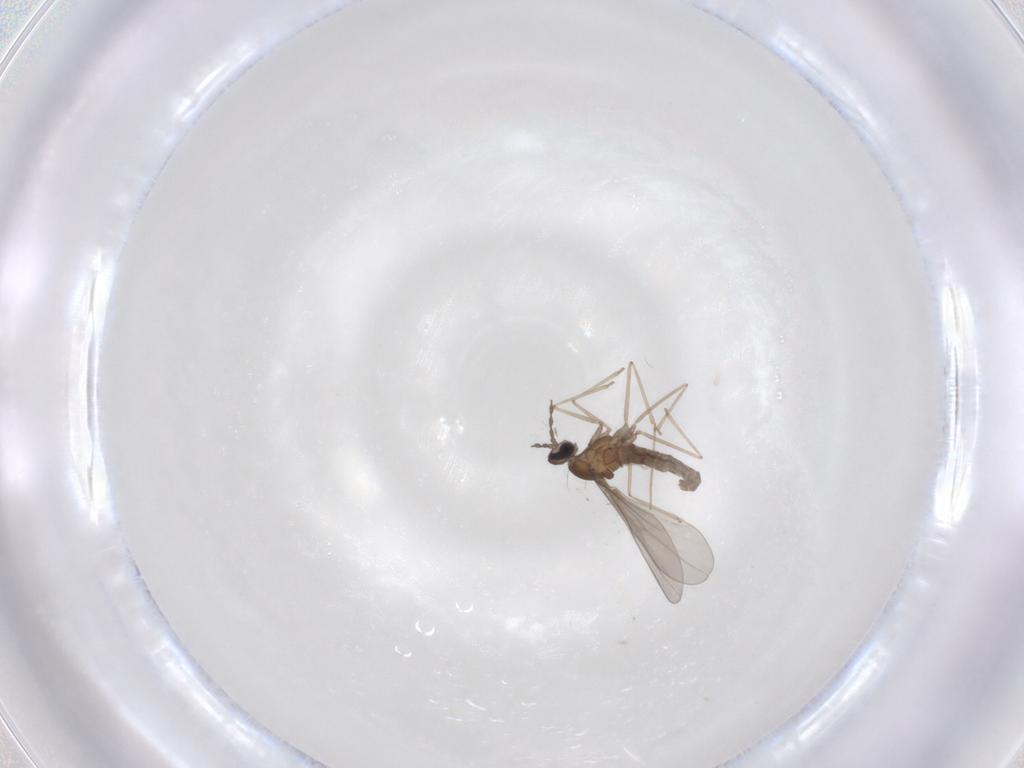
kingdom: Animalia
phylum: Arthropoda
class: Insecta
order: Diptera
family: Cecidomyiidae
